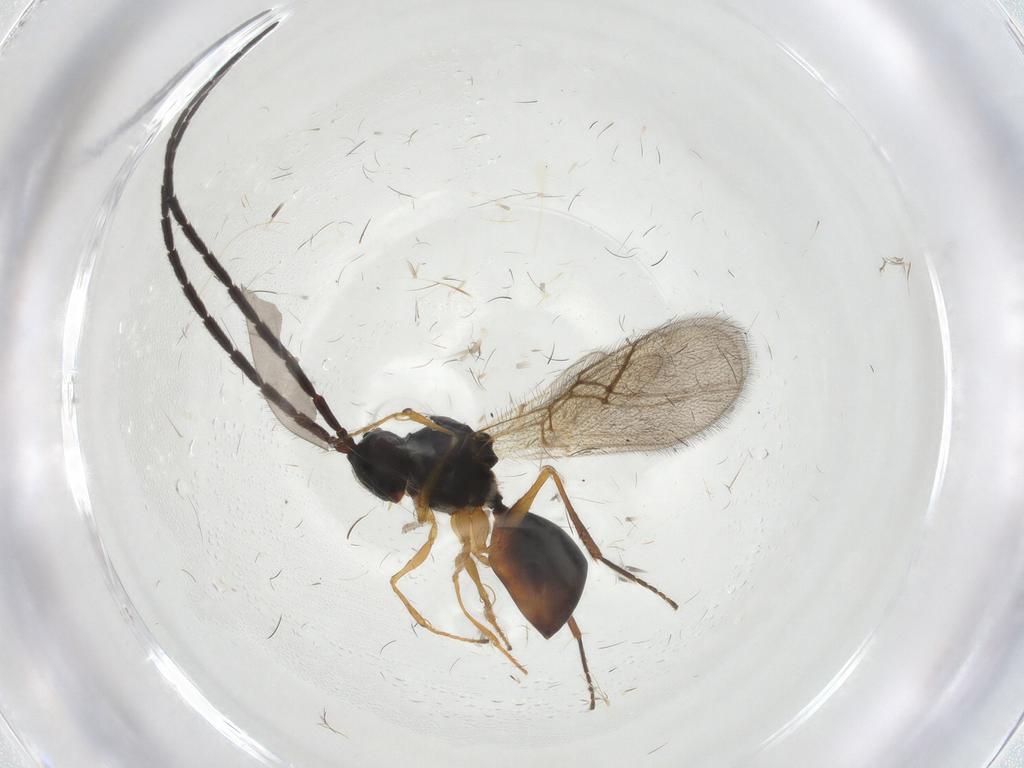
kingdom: Animalia
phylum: Arthropoda
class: Insecta
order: Hymenoptera
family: Figitidae
